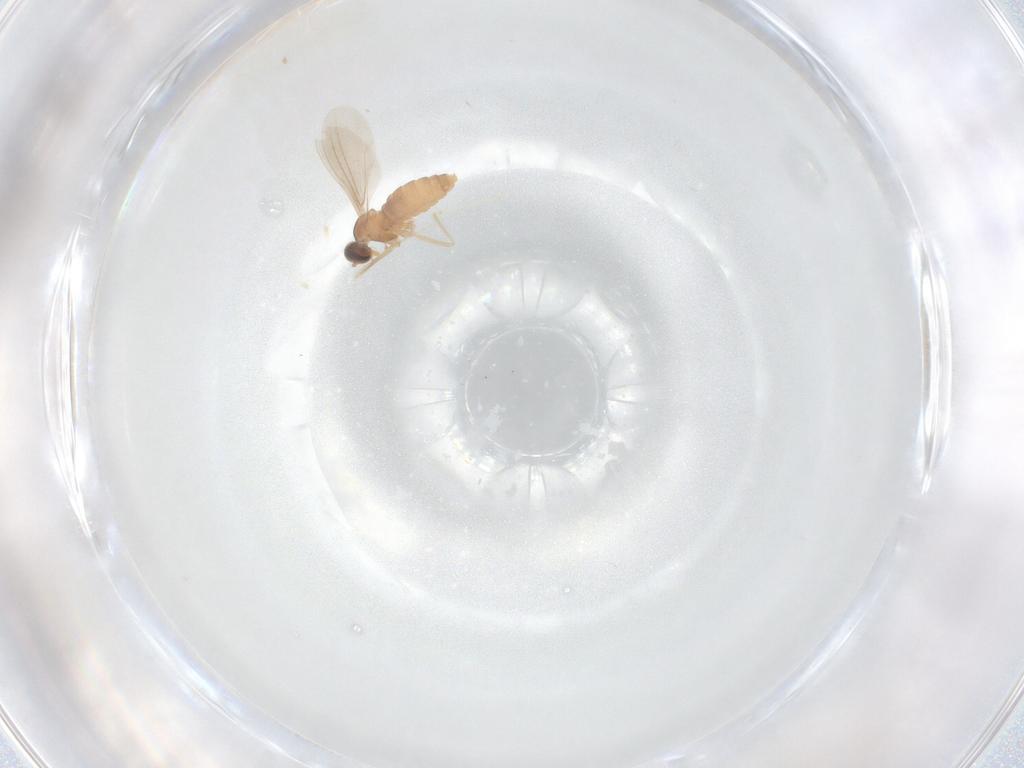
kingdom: Animalia
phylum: Arthropoda
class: Insecta
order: Diptera
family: Cecidomyiidae
